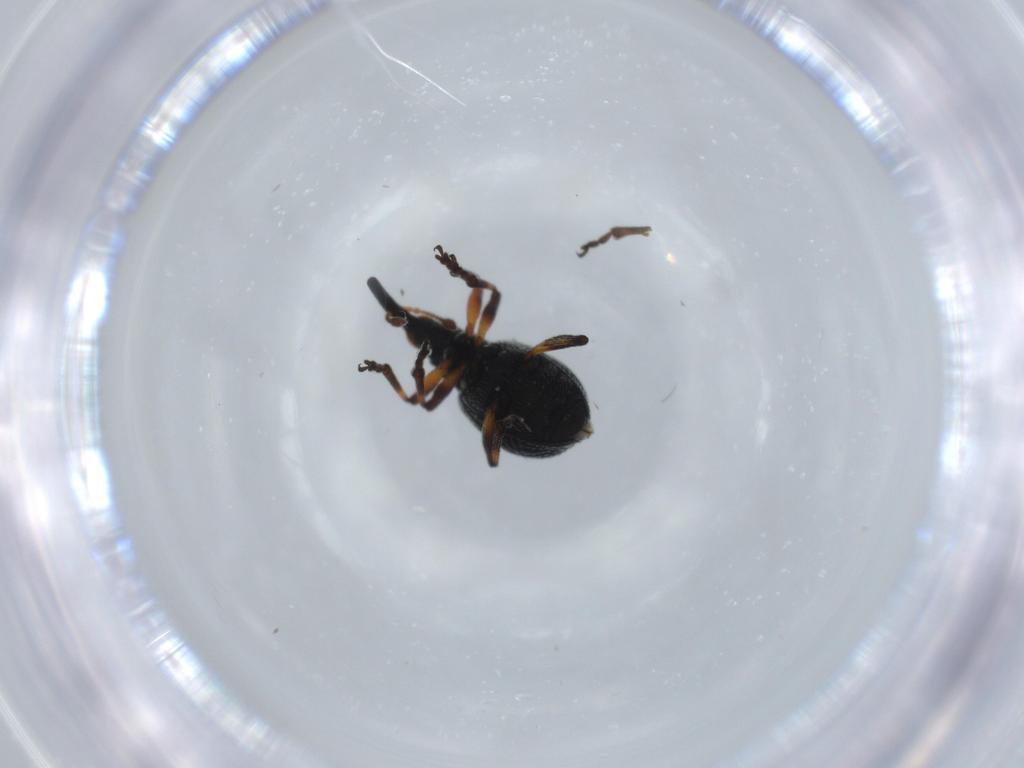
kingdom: Animalia
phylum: Arthropoda
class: Insecta
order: Coleoptera
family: Brentidae
